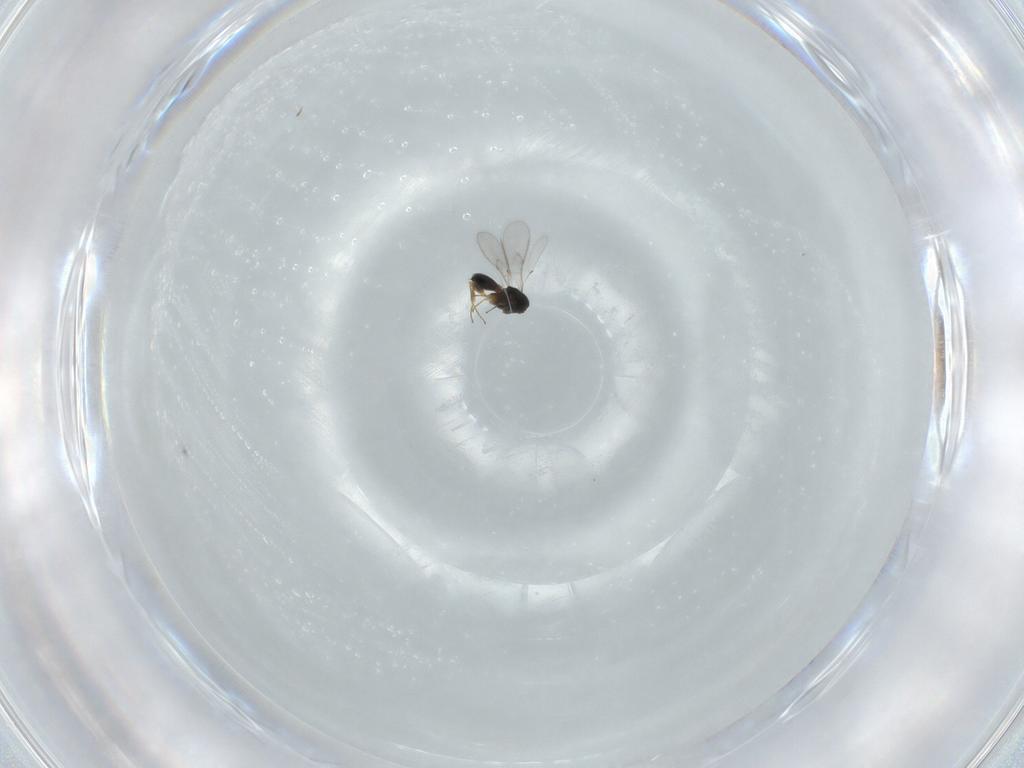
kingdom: Animalia
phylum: Arthropoda
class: Insecta
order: Hymenoptera
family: Scelionidae
